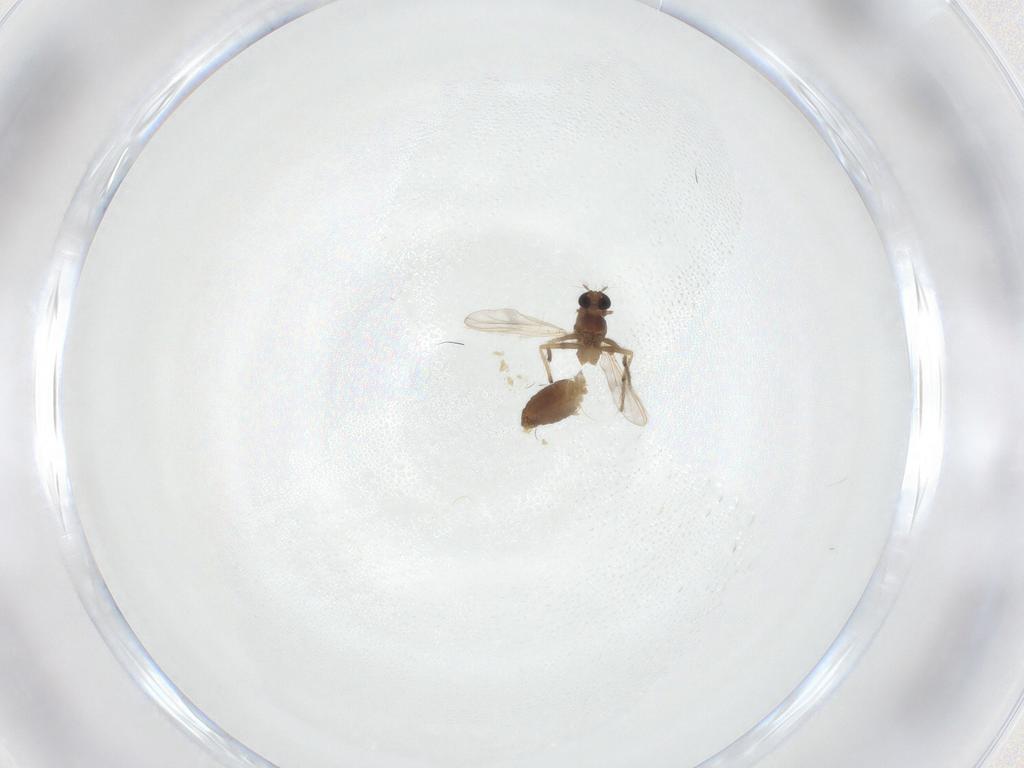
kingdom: Animalia
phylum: Arthropoda
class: Insecta
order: Diptera
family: Chironomidae
